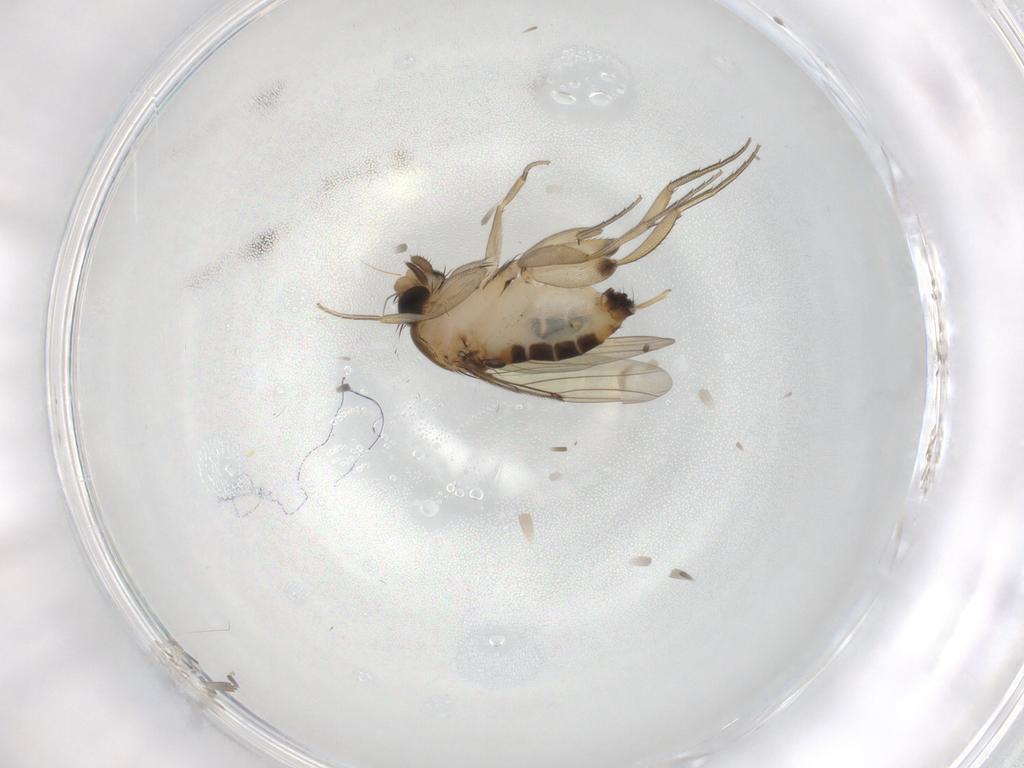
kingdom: Animalia
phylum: Arthropoda
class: Insecta
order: Diptera
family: Phoridae
